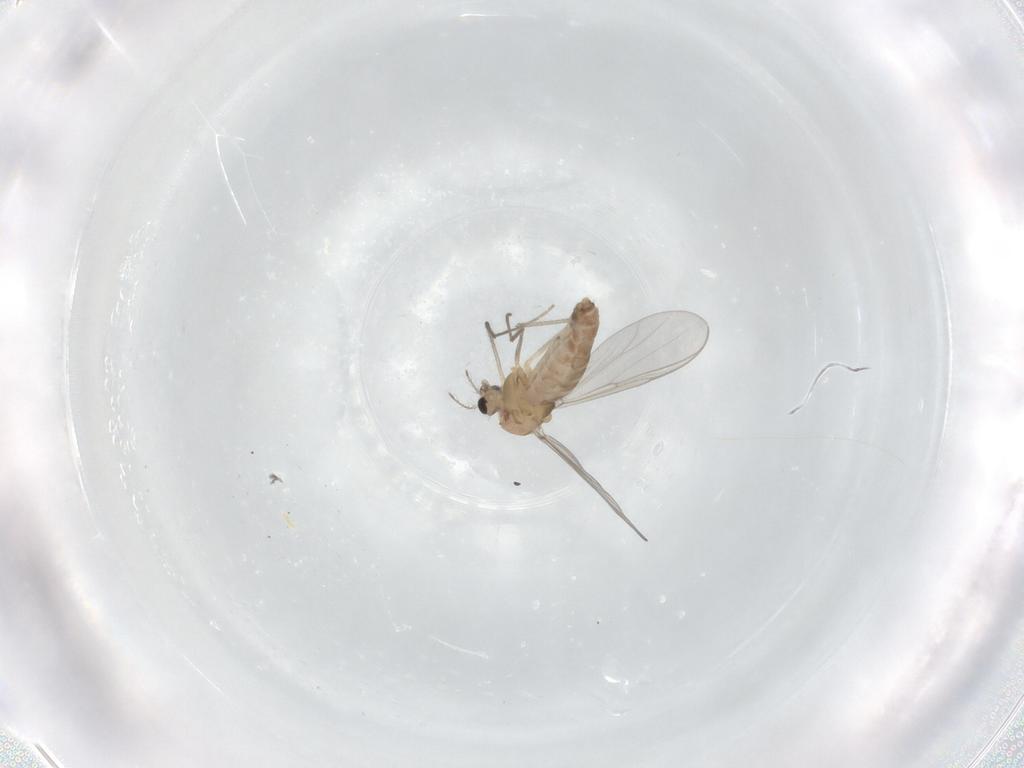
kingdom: Animalia
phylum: Arthropoda
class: Insecta
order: Diptera
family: Chironomidae
